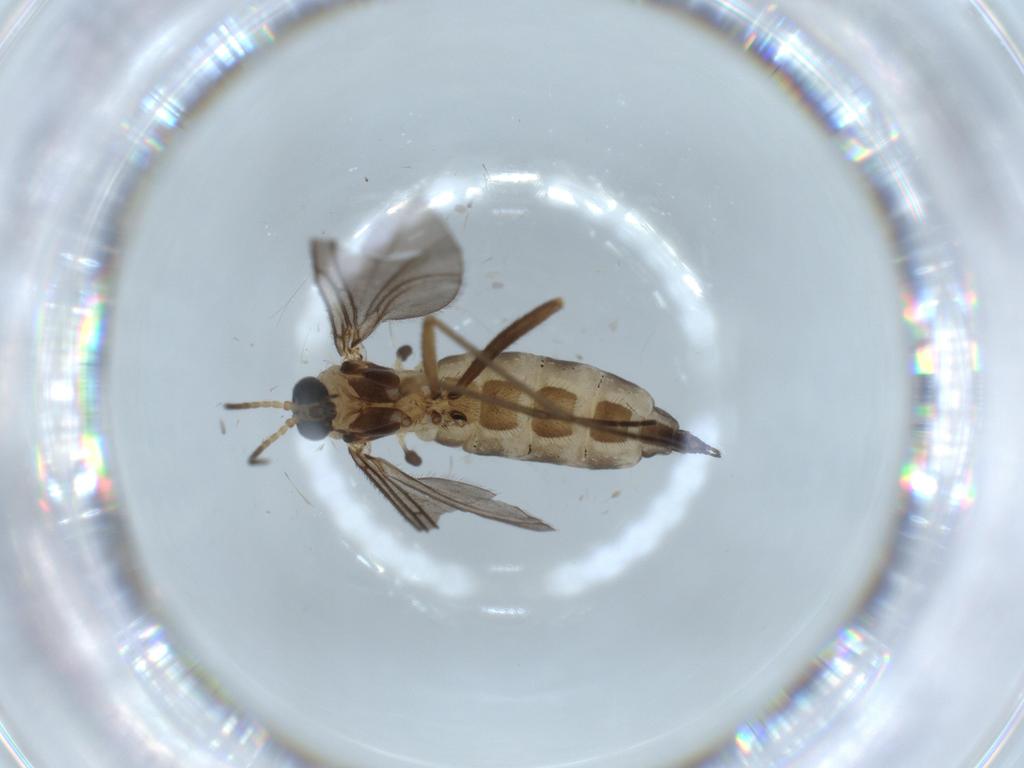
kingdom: Animalia
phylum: Arthropoda
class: Insecta
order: Diptera
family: Sciaridae
